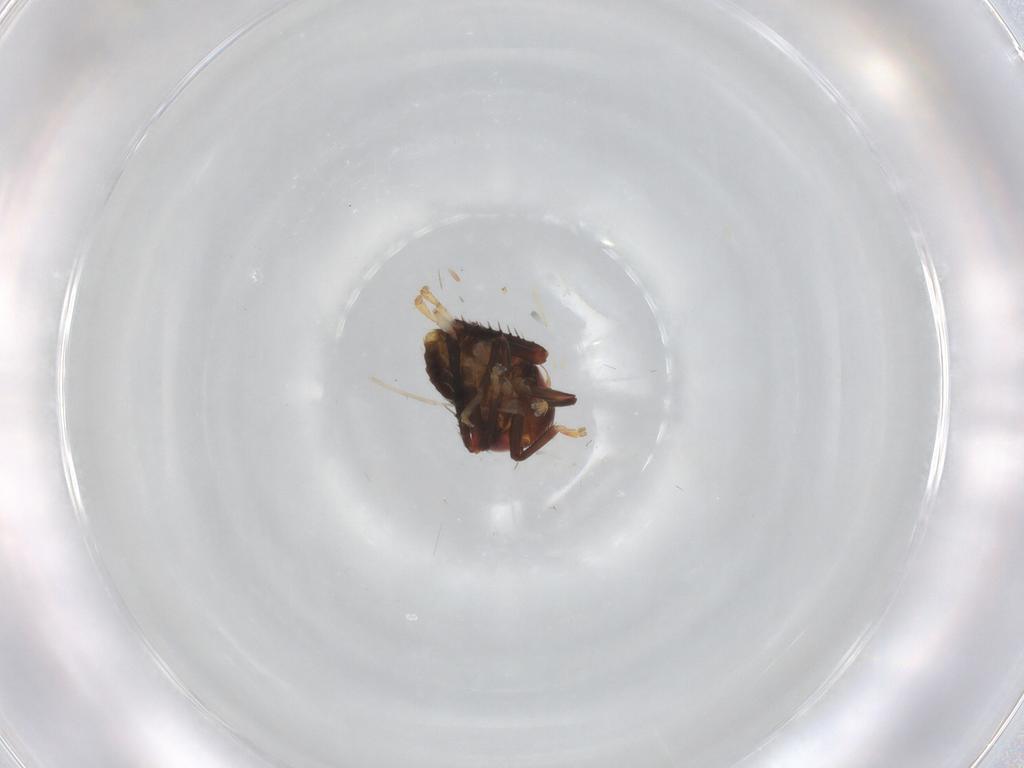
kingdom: Animalia
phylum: Arthropoda
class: Insecta
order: Hemiptera
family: Cicadellidae
